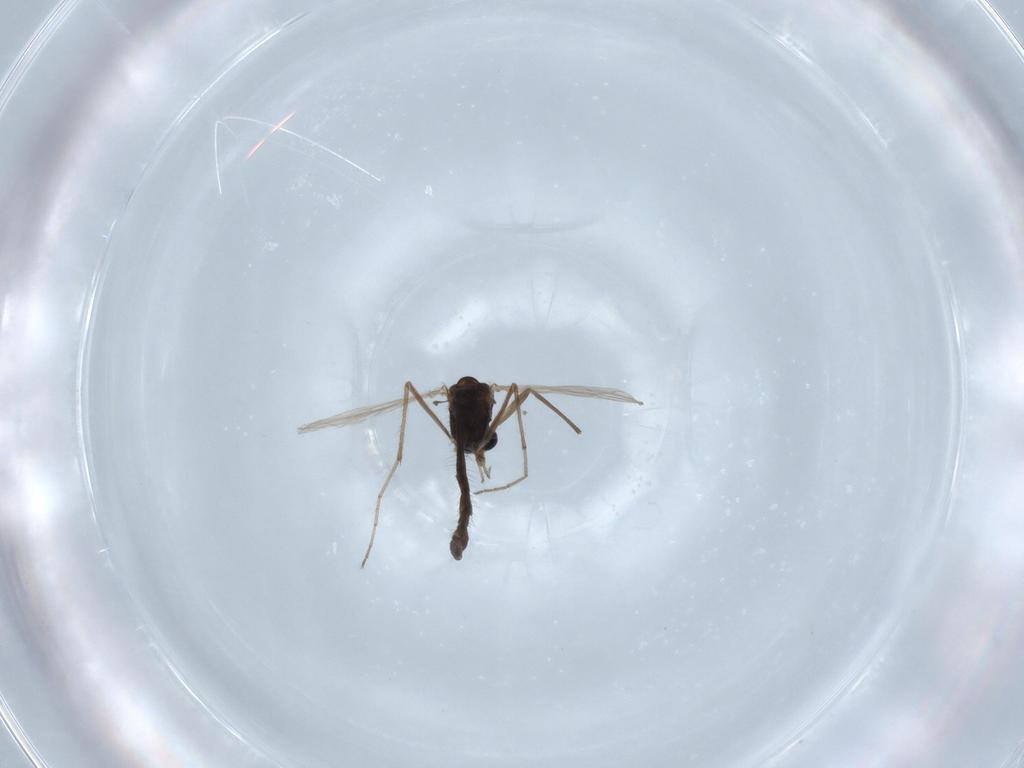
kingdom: Animalia
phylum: Arthropoda
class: Insecta
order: Diptera
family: Chironomidae
